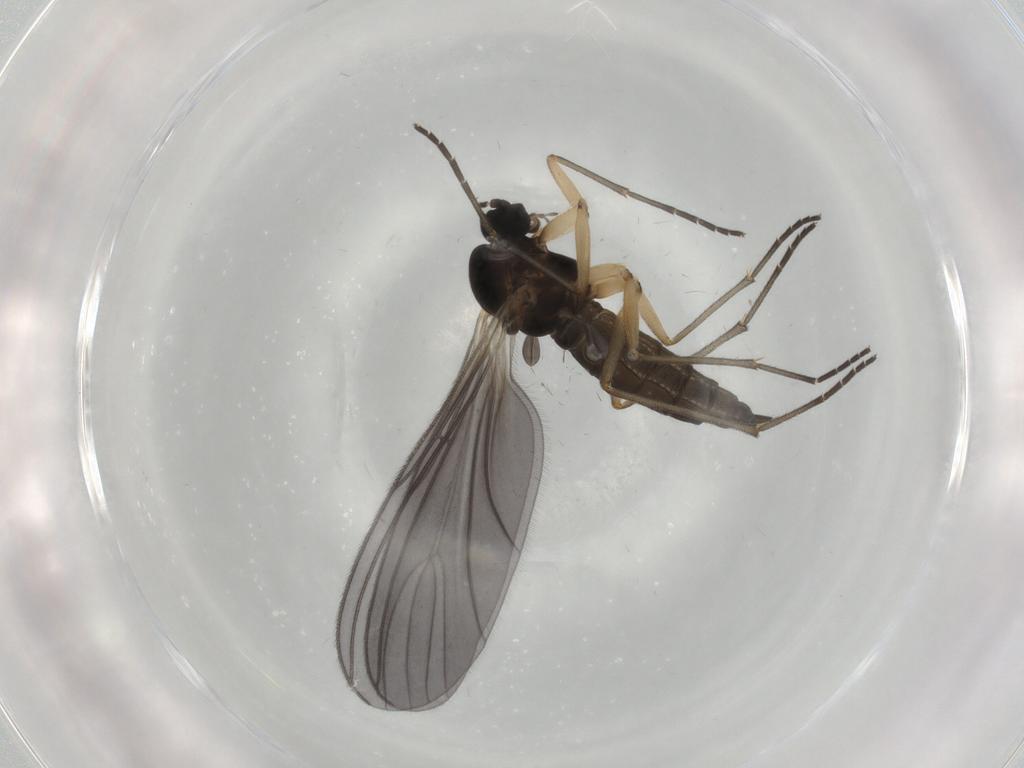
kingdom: Animalia
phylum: Arthropoda
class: Insecta
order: Diptera
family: Sciaridae
